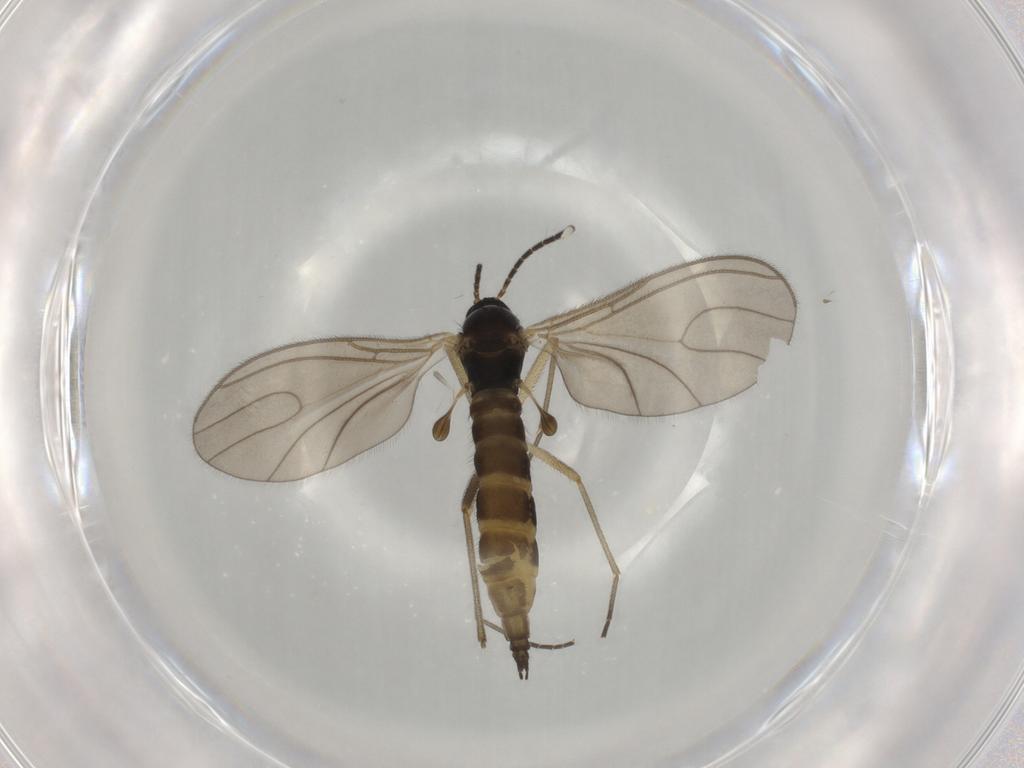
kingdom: Animalia
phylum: Arthropoda
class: Insecta
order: Diptera
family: Sciaridae
